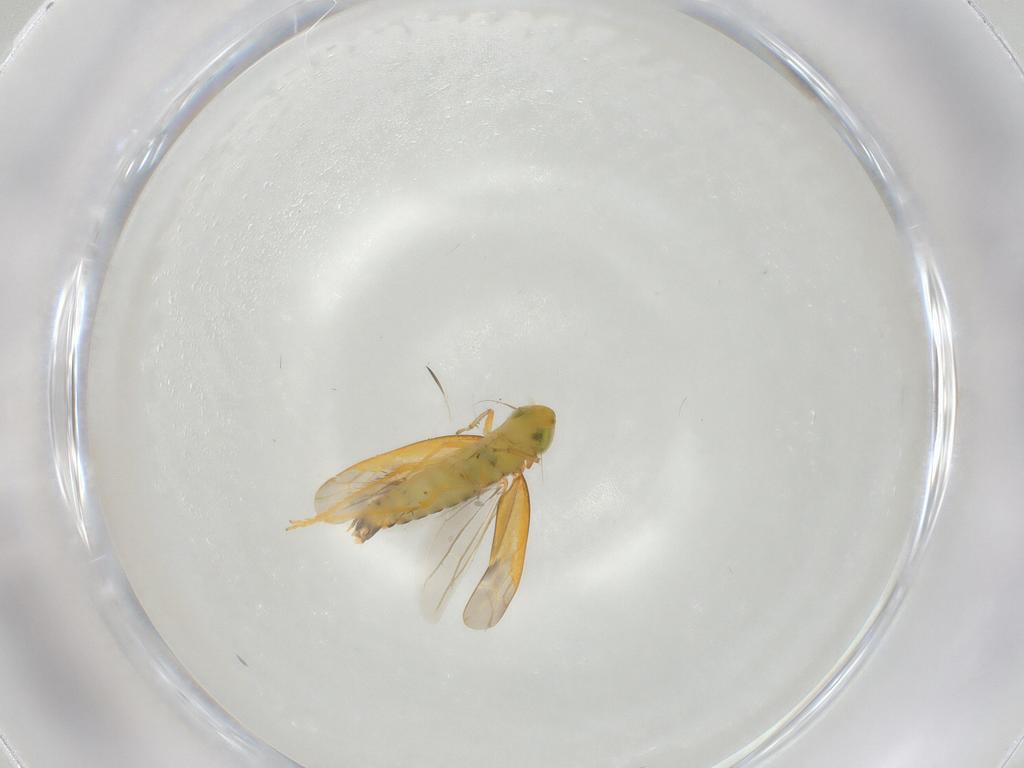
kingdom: Animalia
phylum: Arthropoda
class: Insecta
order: Hemiptera
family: Cicadellidae
